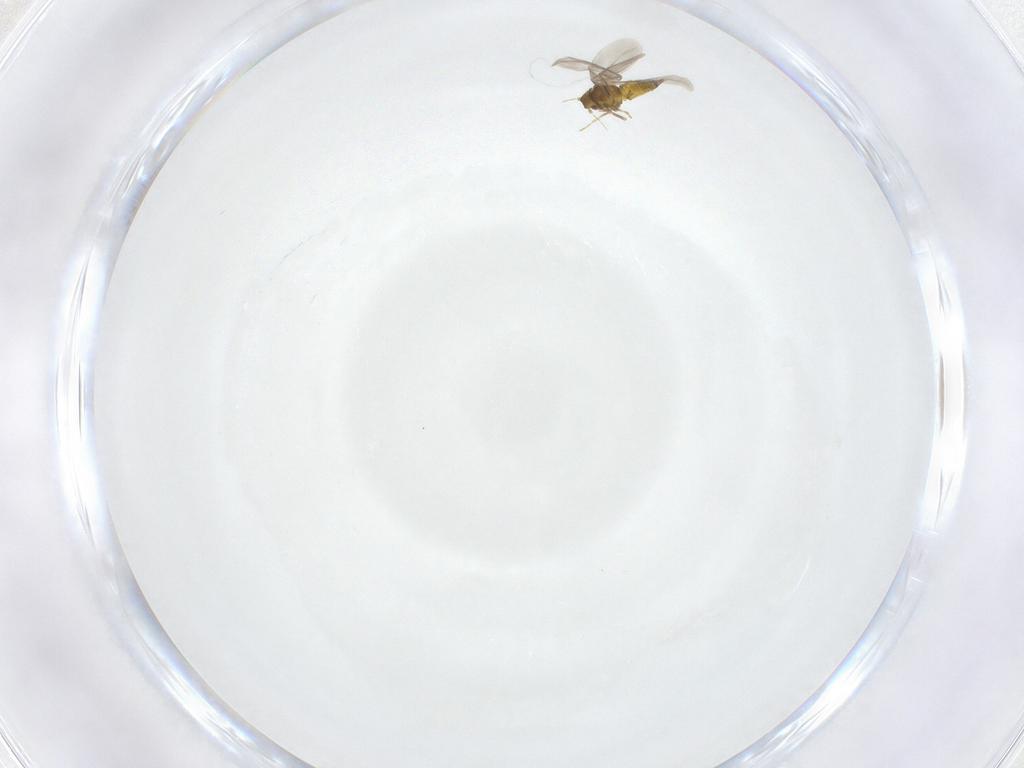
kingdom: Animalia
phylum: Arthropoda
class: Insecta
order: Hemiptera
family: Aleyrodidae
